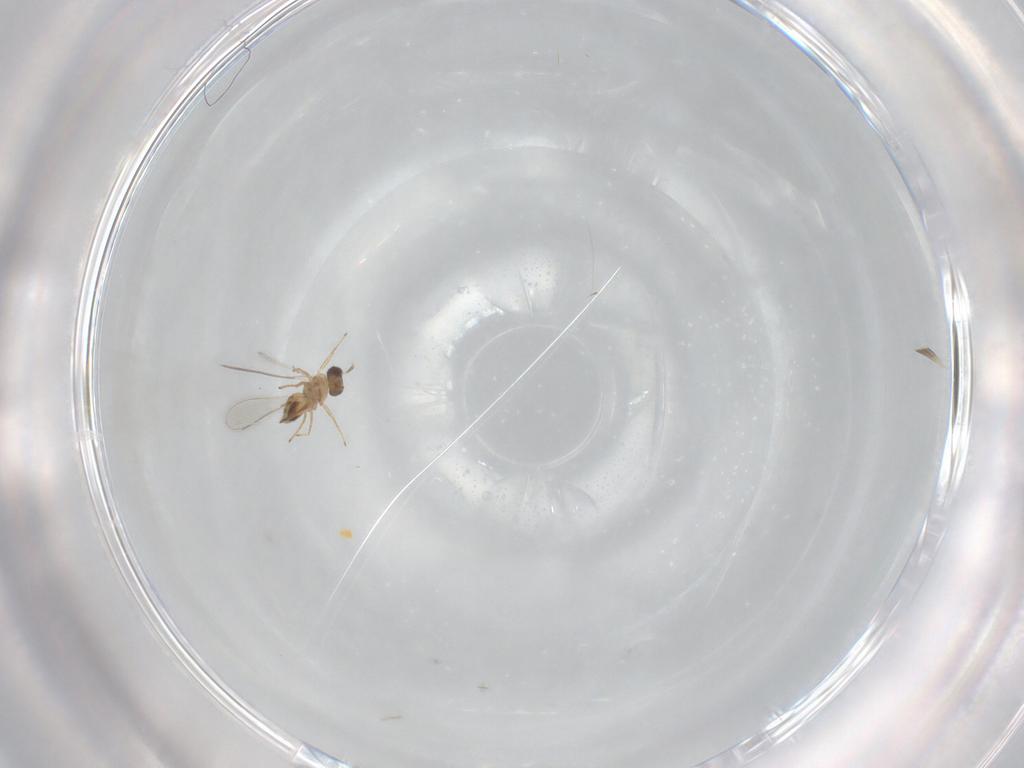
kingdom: Animalia
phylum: Arthropoda
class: Insecta
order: Hymenoptera
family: Mymaridae
